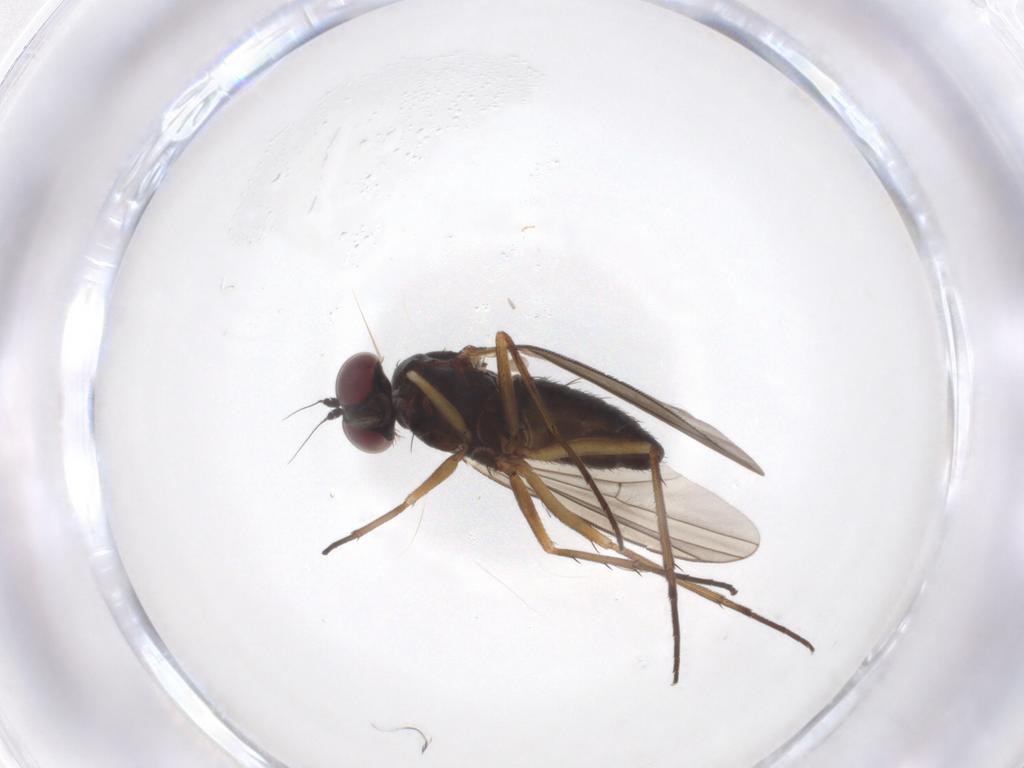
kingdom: Animalia
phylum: Arthropoda
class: Insecta
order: Diptera
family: Dolichopodidae
